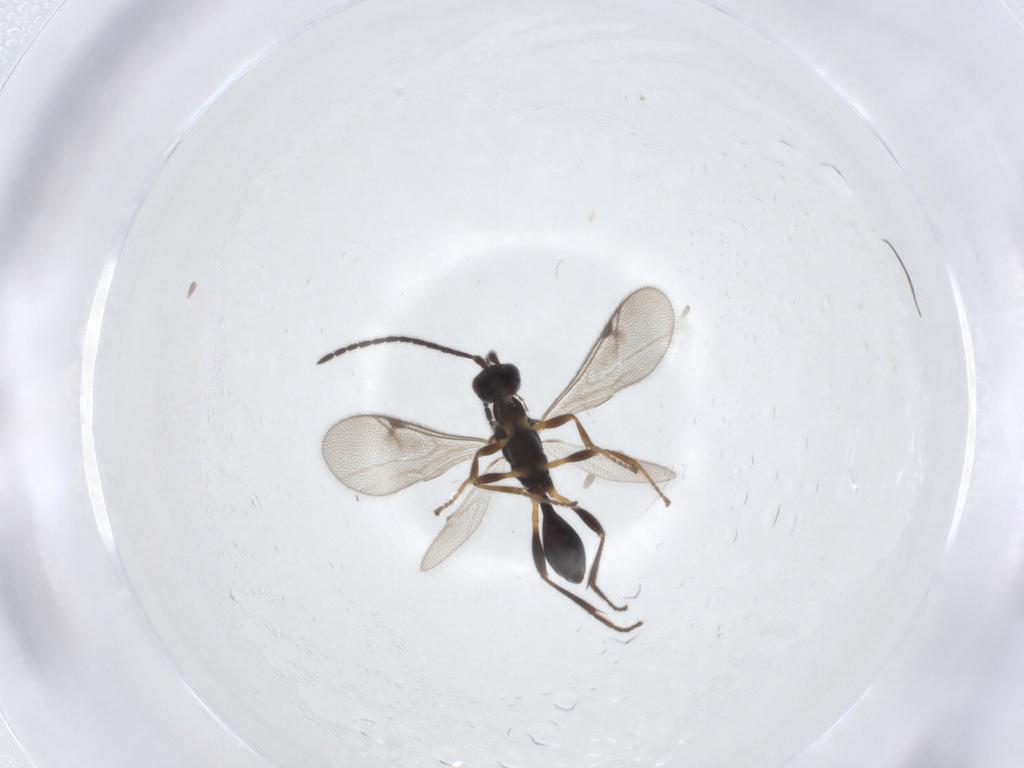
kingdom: Animalia
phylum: Arthropoda
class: Insecta
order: Hymenoptera
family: Proctotrupidae
